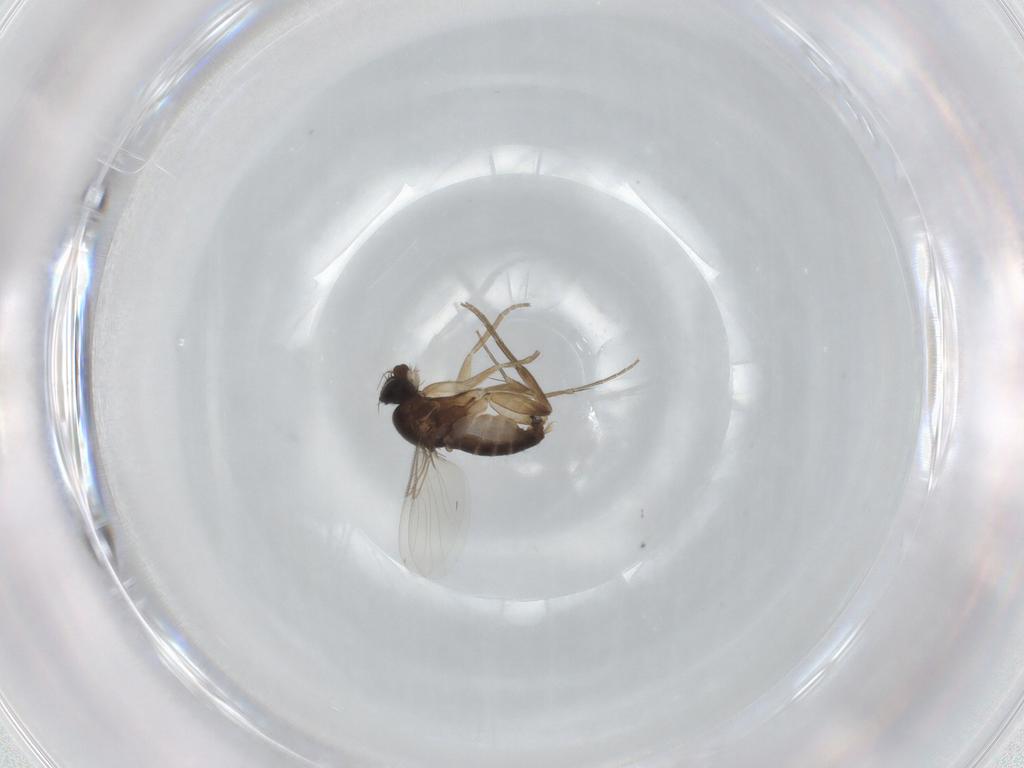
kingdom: Animalia
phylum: Arthropoda
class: Insecta
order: Diptera
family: Phoridae
